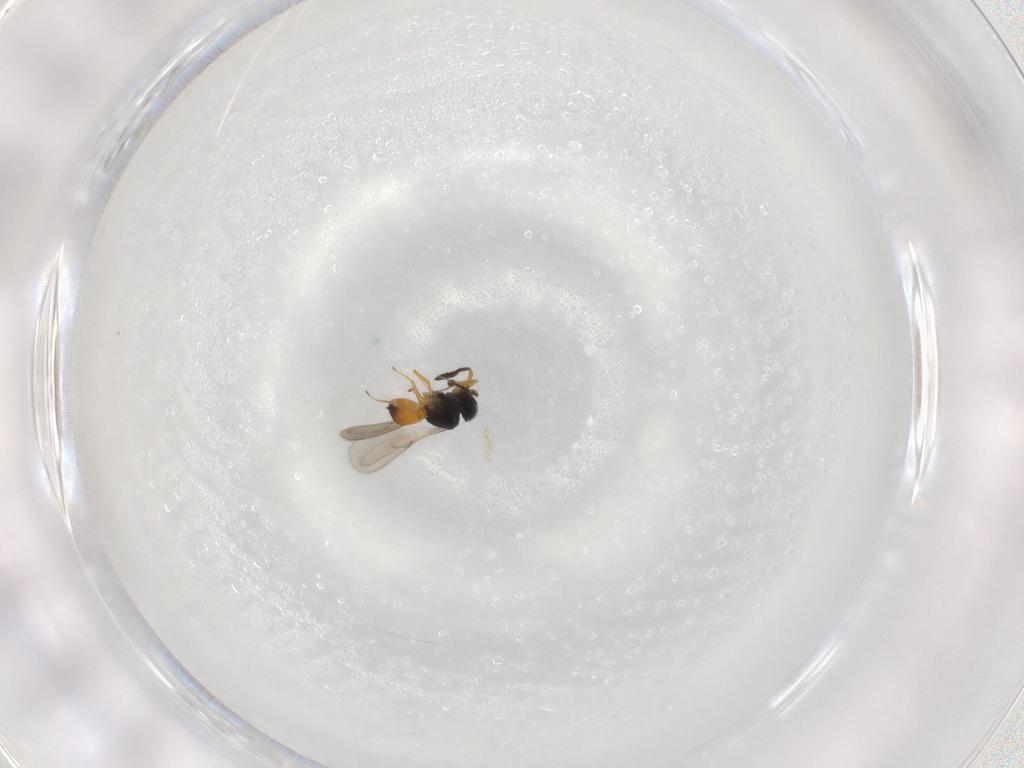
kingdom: Animalia
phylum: Arthropoda
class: Insecta
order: Hymenoptera
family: Scelionidae
